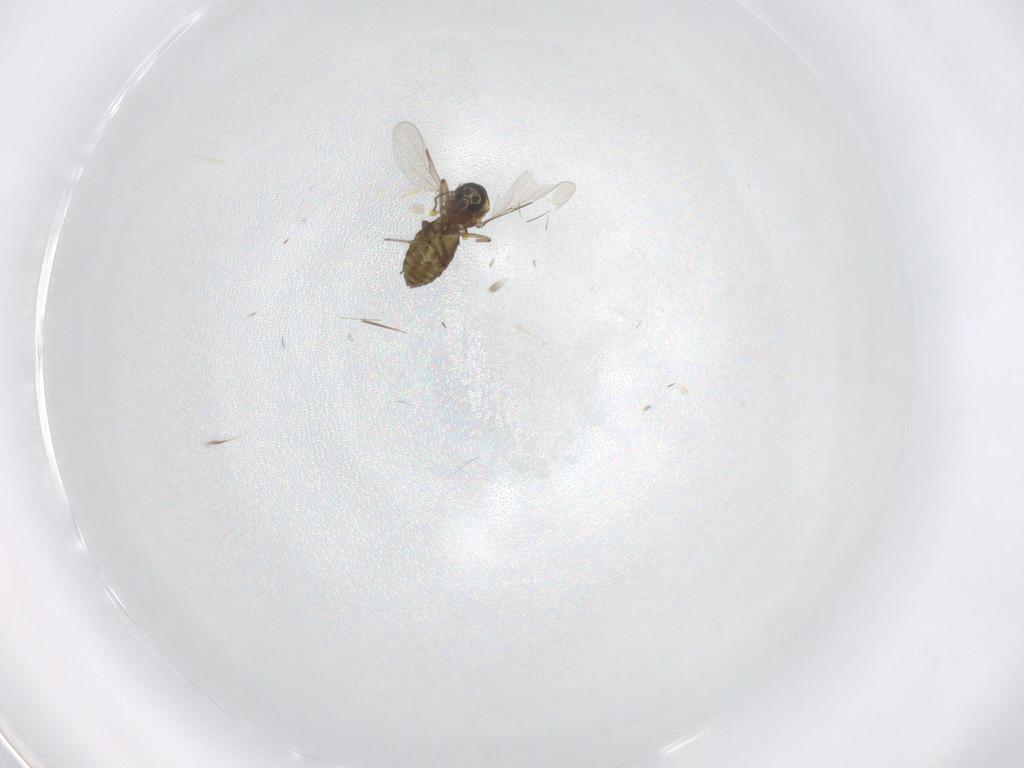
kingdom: Animalia
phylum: Arthropoda
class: Insecta
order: Diptera
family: Ceratopogonidae
